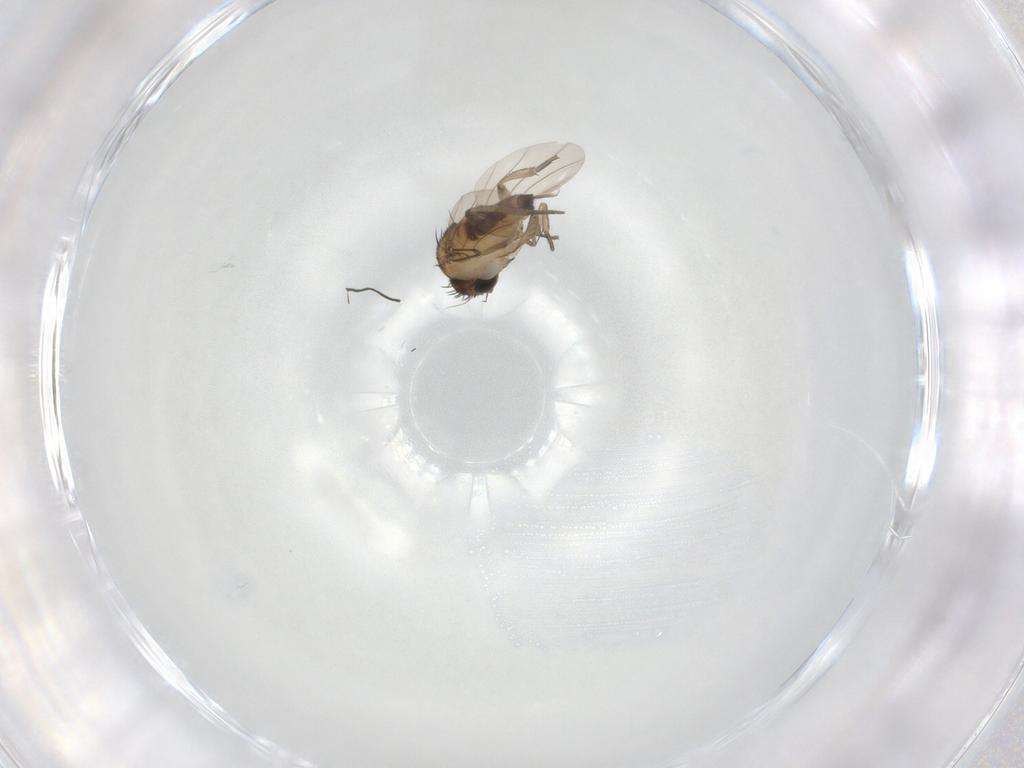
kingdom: Animalia
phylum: Arthropoda
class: Insecta
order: Diptera
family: Phoridae
